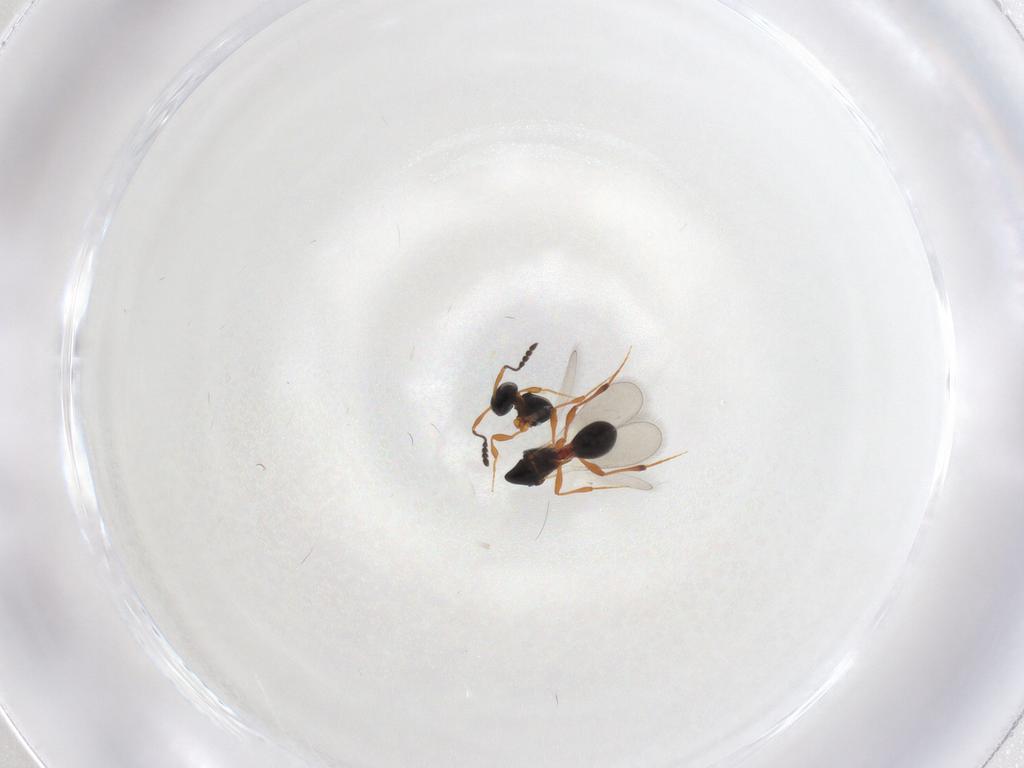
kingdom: Animalia
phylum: Arthropoda
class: Insecta
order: Hymenoptera
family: Platygastridae
